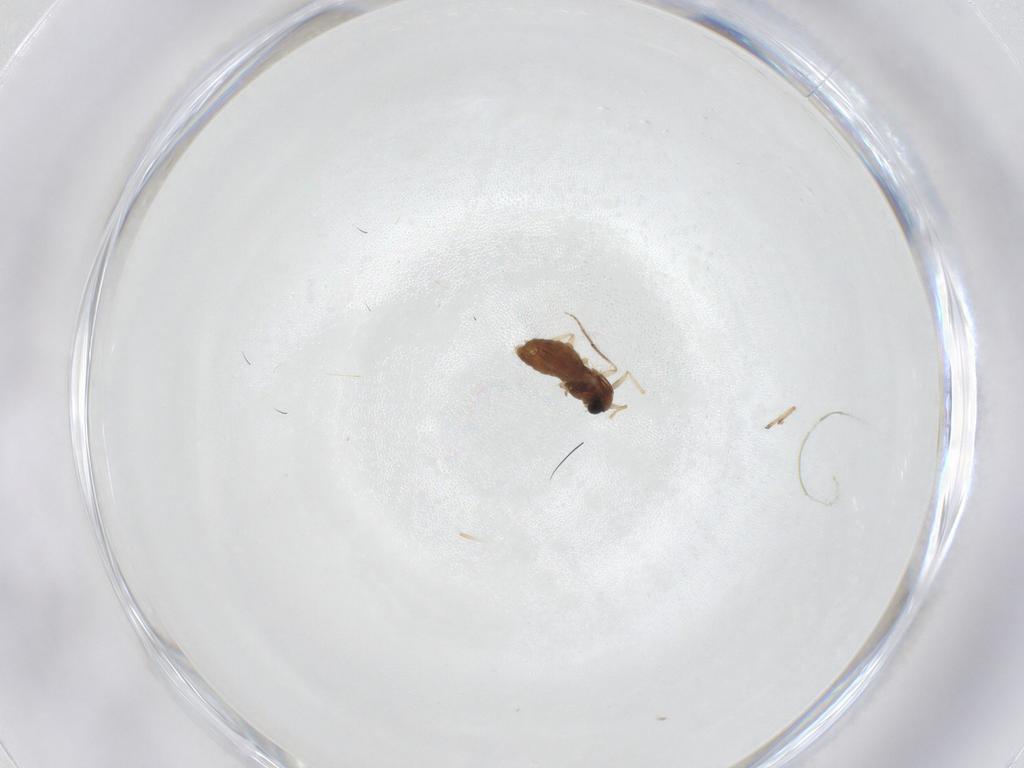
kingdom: Animalia
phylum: Arthropoda
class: Insecta
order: Diptera
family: Chironomidae
